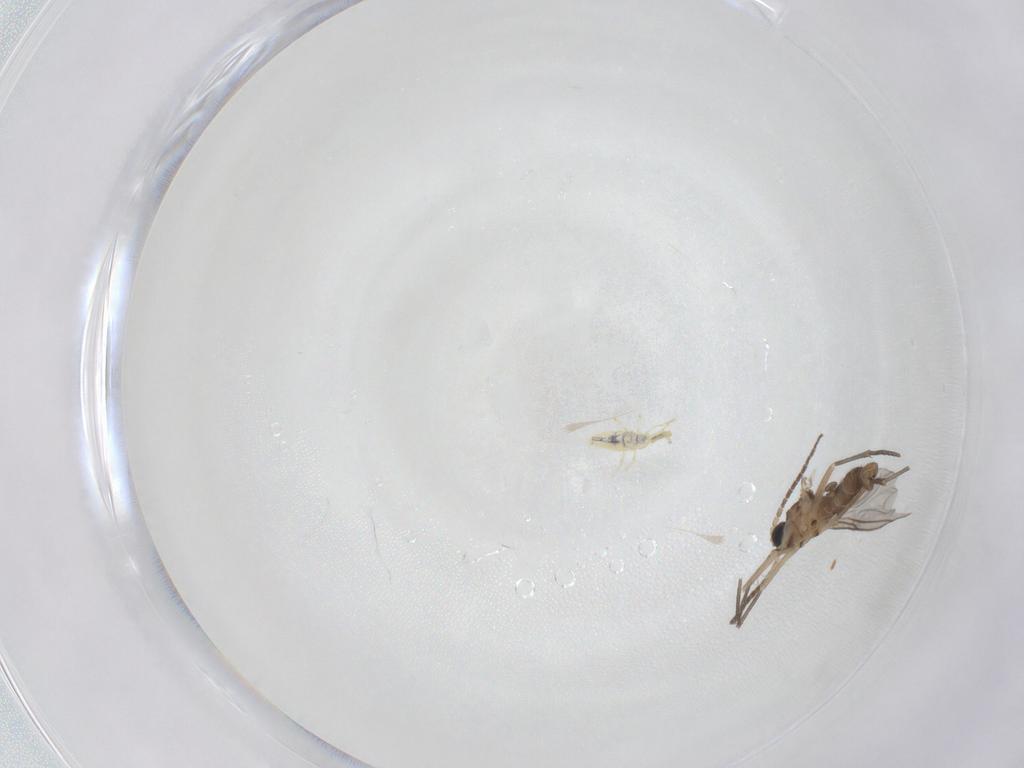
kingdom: Animalia
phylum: Arthropoda
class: Insecta
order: Diptera
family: Sciaridae
